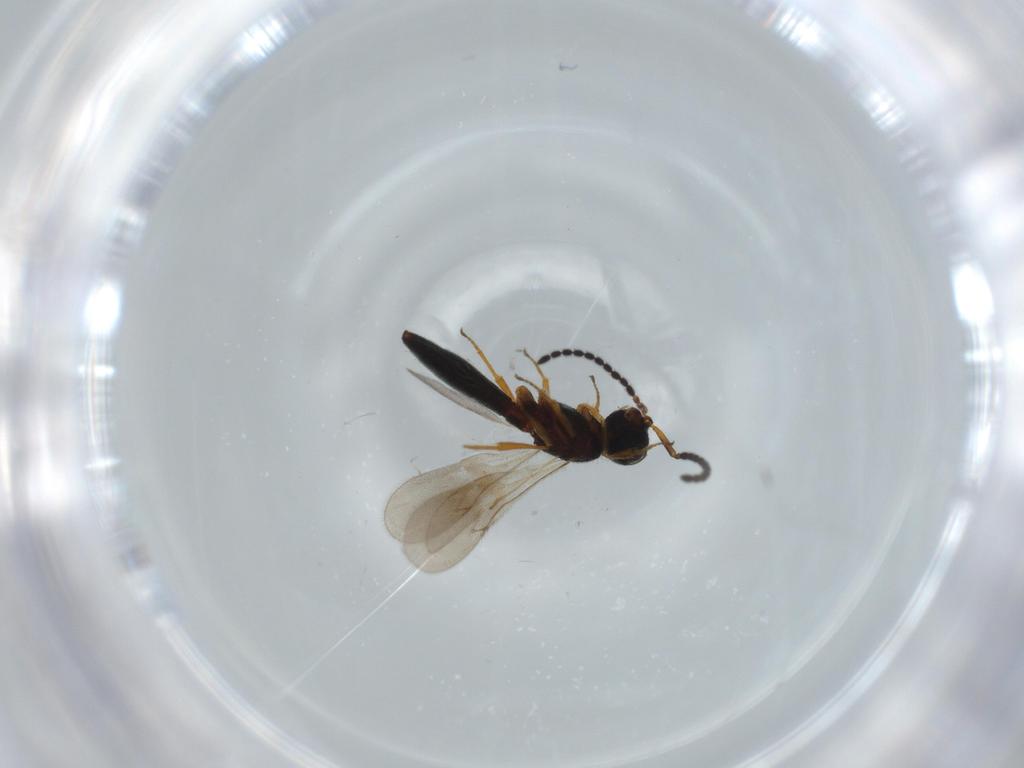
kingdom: Animalia
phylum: Arthropoda
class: Insecta
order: Hymenoptera
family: Scelionidae
